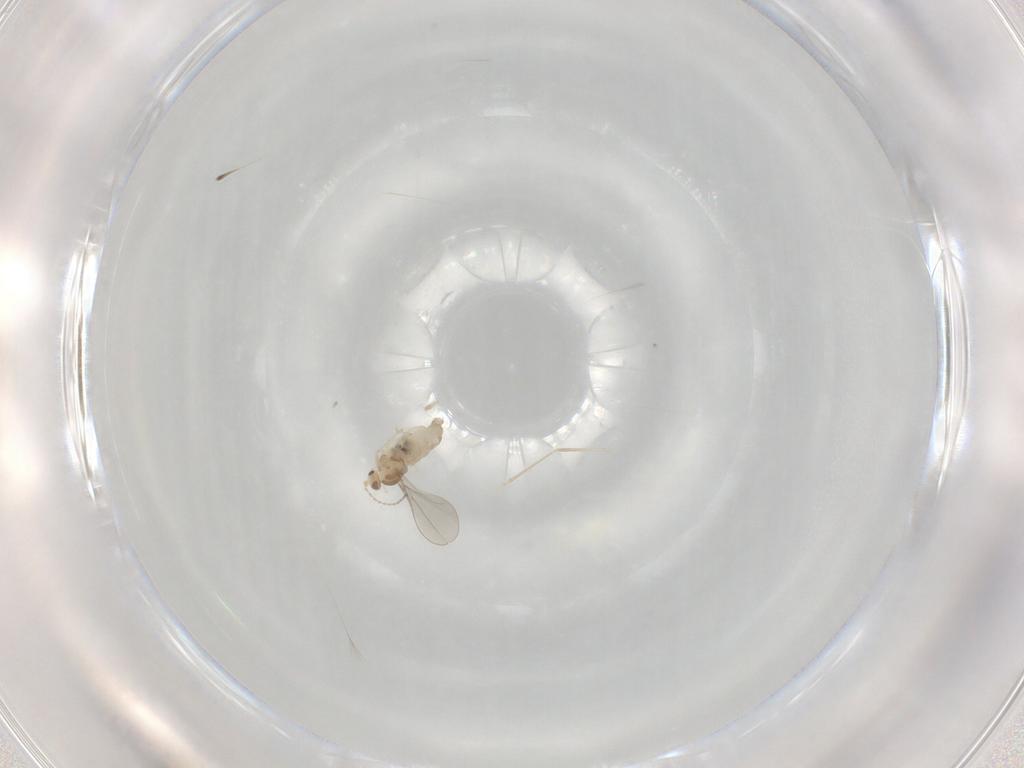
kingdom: Animalia
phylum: Arthropoda
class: Insecta
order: Diptera
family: Cecidomyiidae
